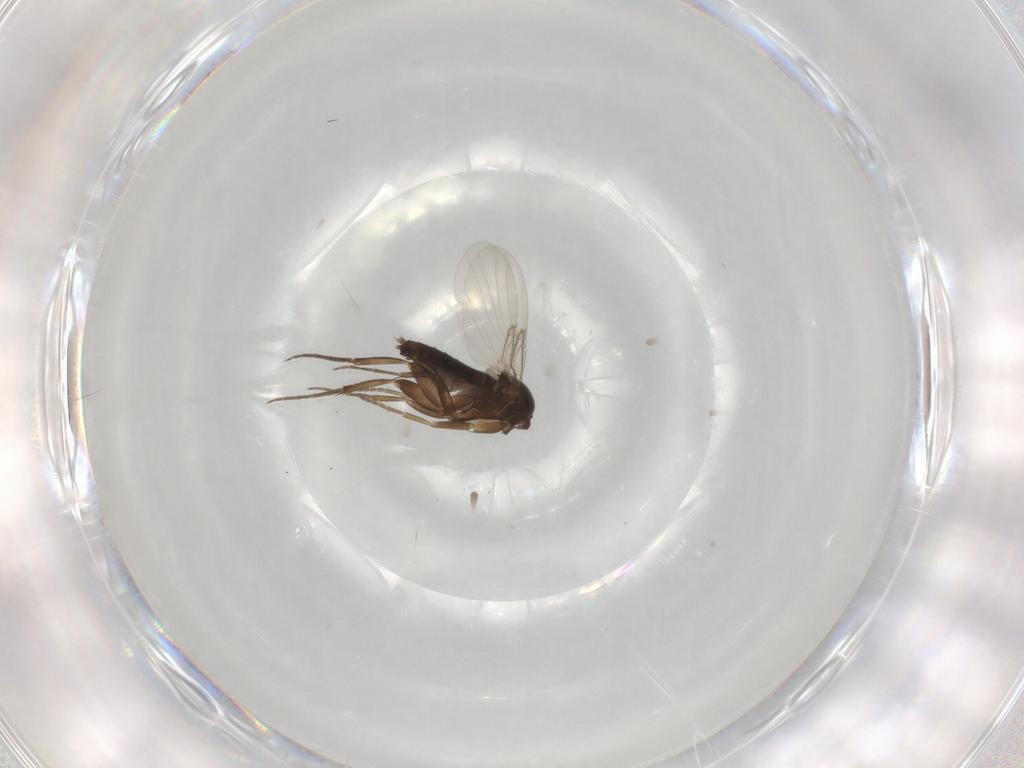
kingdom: Animalia
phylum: Arthropoda
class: Insecta
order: Diptera
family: Phoridae
